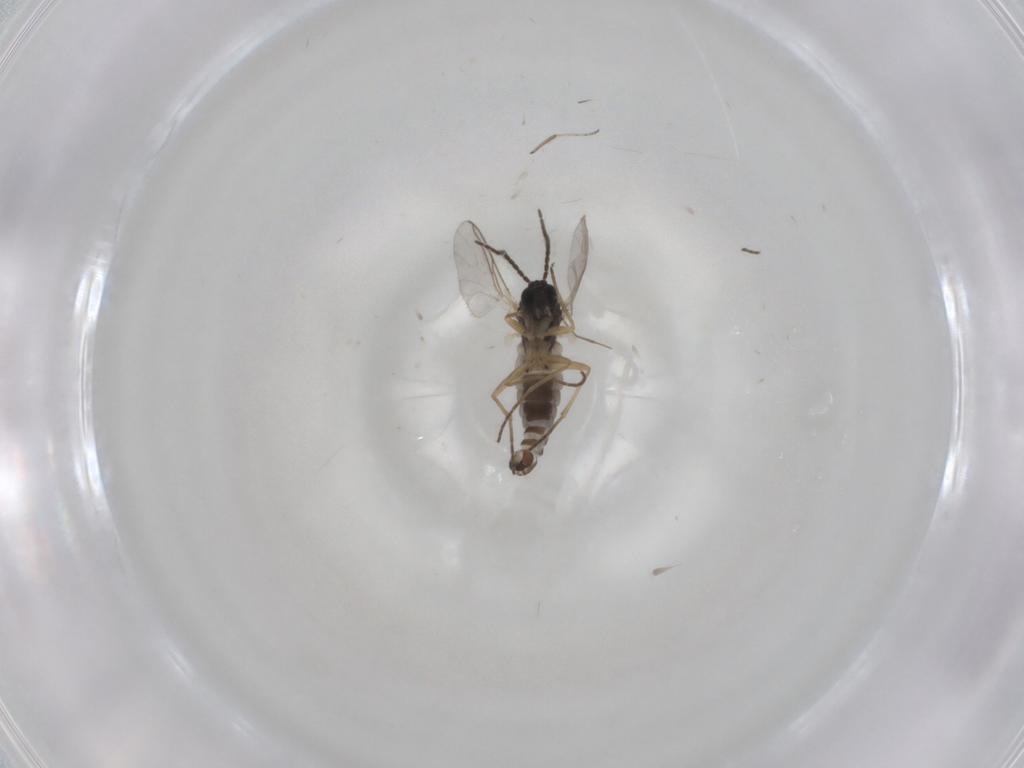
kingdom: Animalia
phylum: Arthropoda
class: Insecta
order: Diptera
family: Ceratopogonidae
